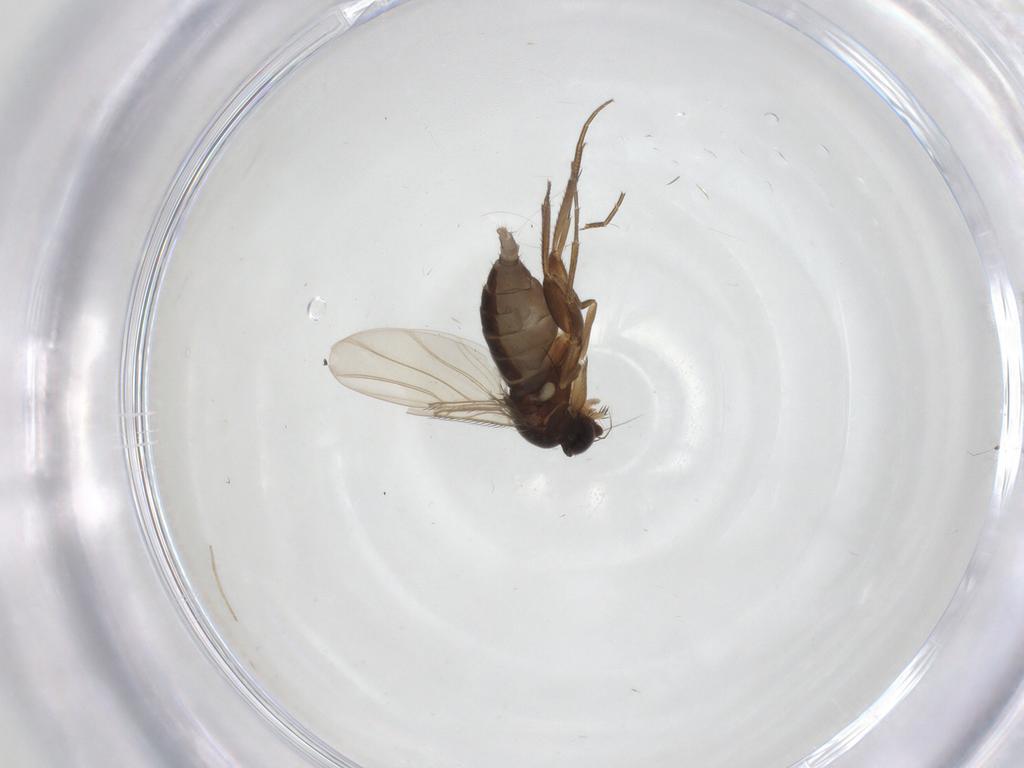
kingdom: Animalia
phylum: Arthropoda
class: Insecta
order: Diptera
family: Phoridae
